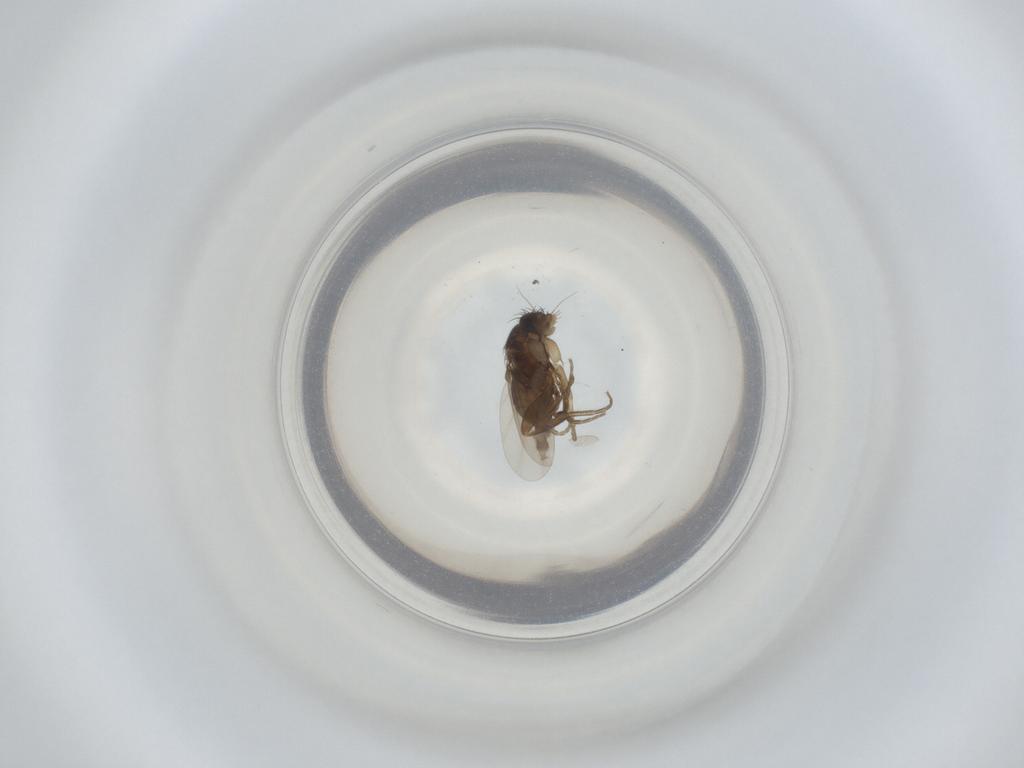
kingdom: Animalia
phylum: Arthropoda
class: Insecta
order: Diptera
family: Phoridae
